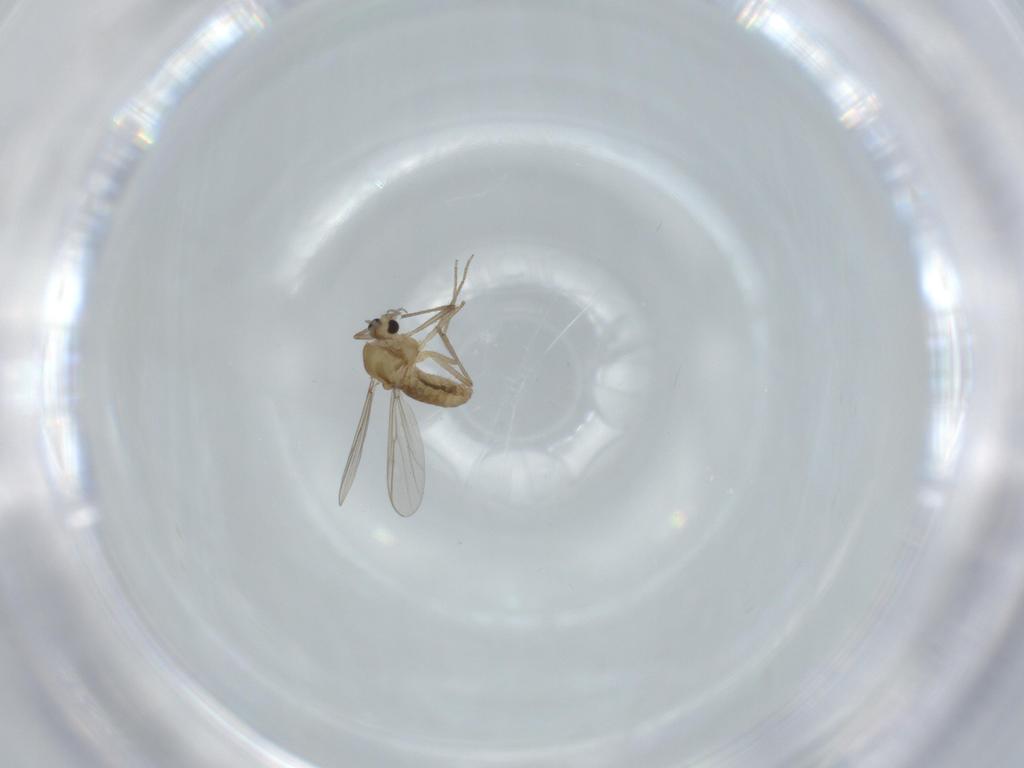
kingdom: Animalia
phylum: Arthropoda
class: Insecta
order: Diptera
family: Chironomidae
